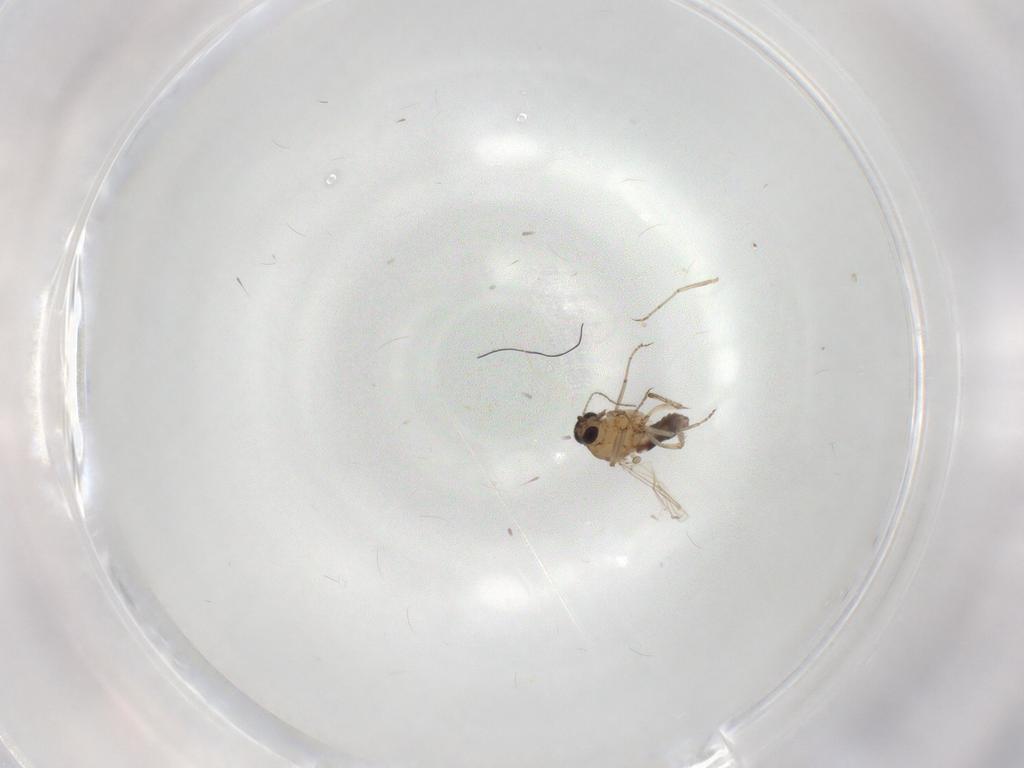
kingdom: Animalia
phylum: Arthropoda
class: Insecta
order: Diptera
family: Ceratopogonidae
